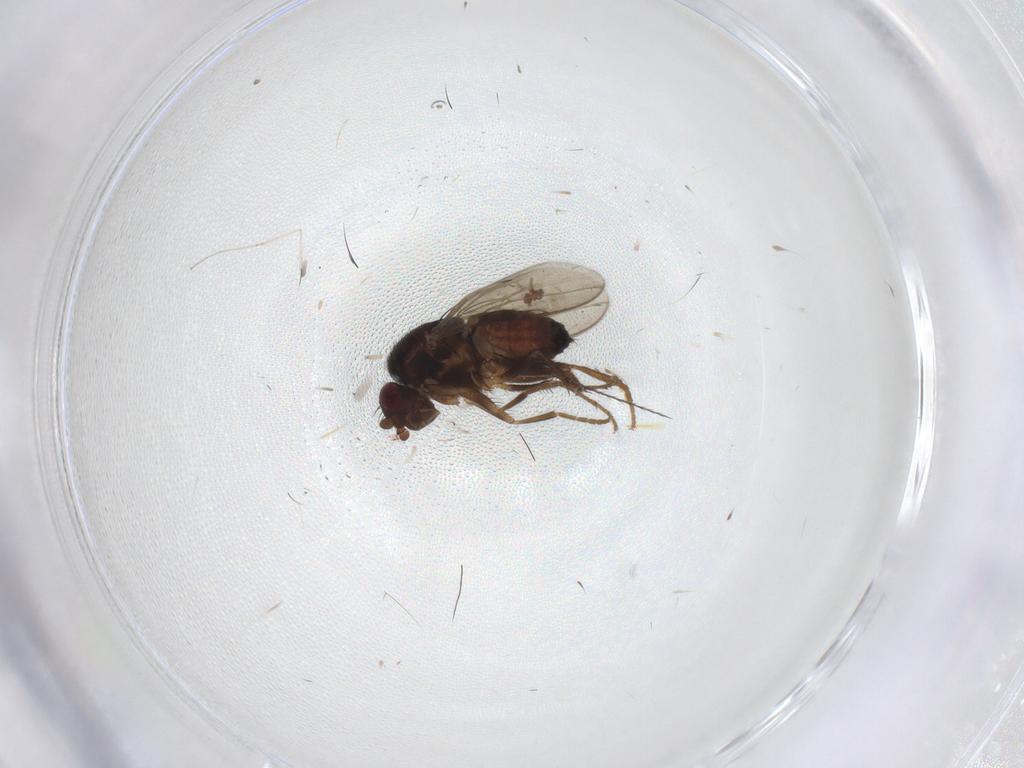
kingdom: Animalia
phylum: Arthropoda
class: Insecta
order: Diptera
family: Sphaeroceridae
